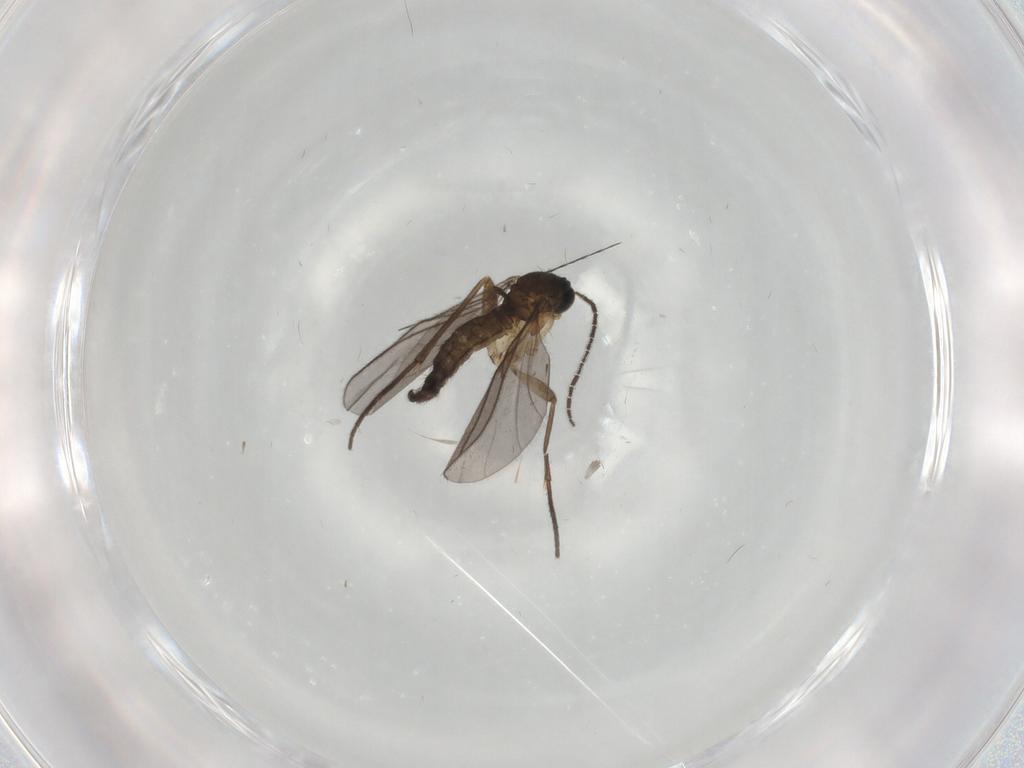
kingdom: Animalia
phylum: Arthropoda
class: Insecta
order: Diptera
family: Sciaridae
